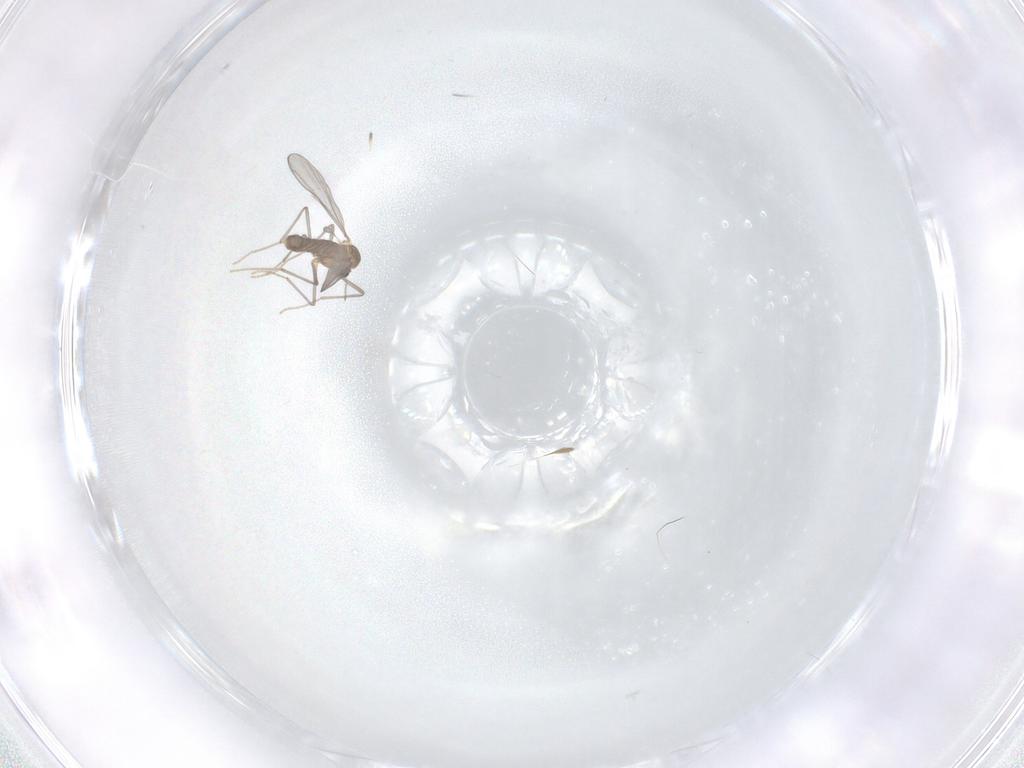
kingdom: Animalia
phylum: Arthropoda
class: Insecta
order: Diptera
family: Chironomidae
